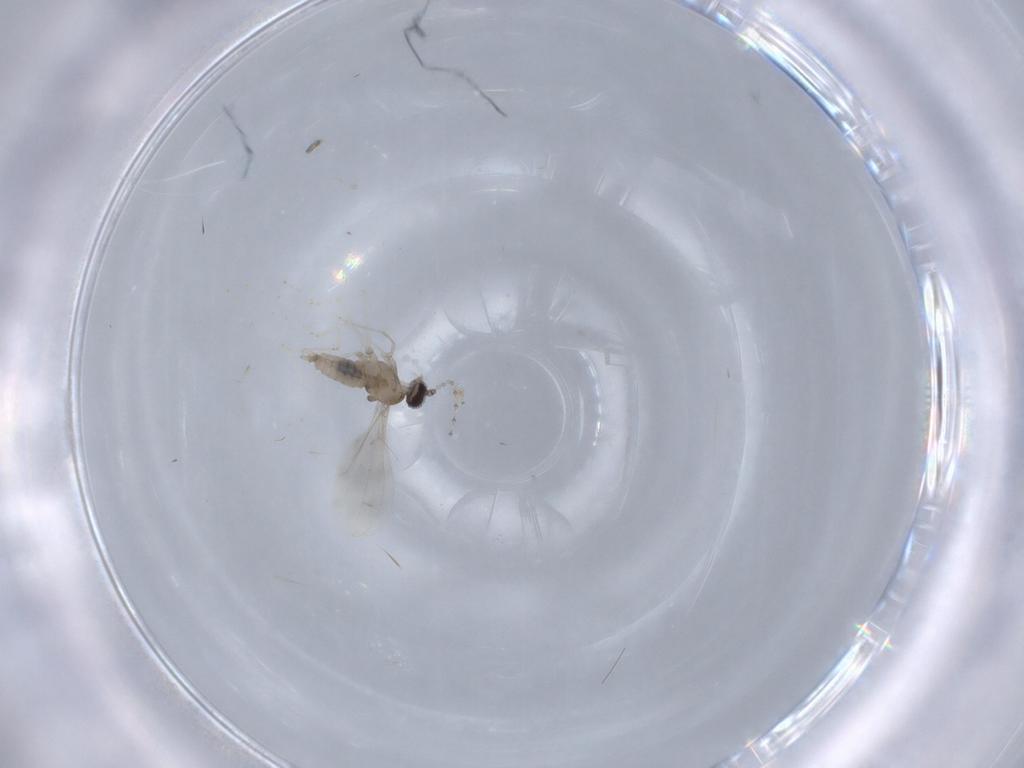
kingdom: Animalia
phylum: Arthropoda
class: Insecta
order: Diptera
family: Cecidomyiidae
